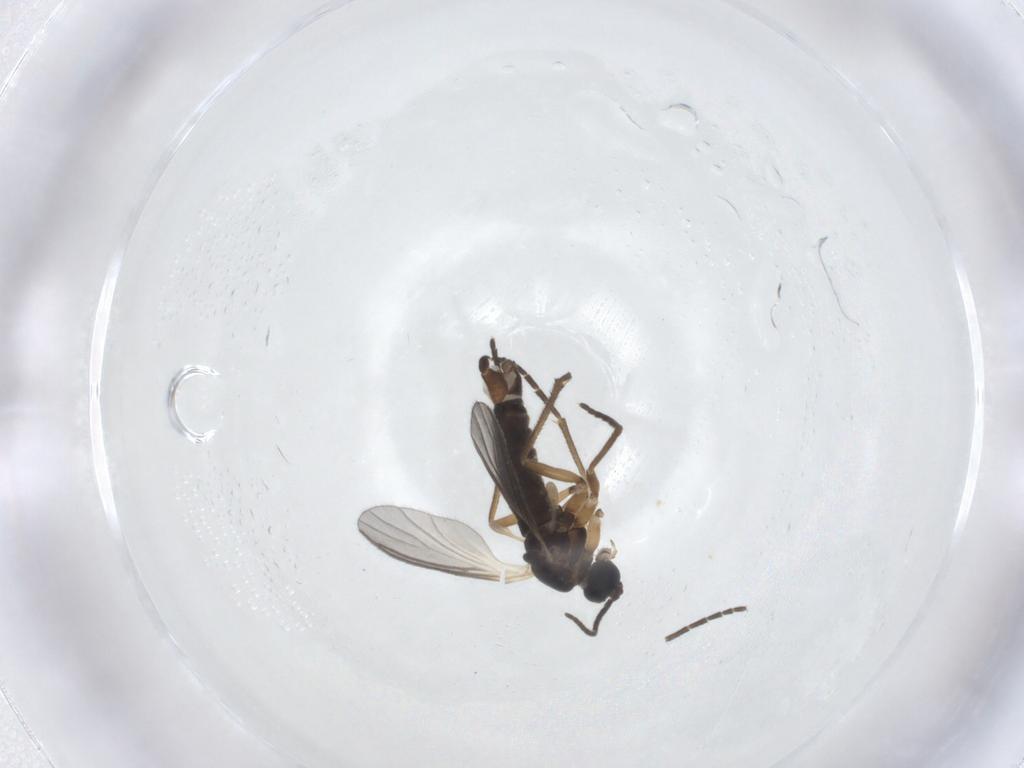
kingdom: Animalia
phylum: Arthropoda
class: Insecta
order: Diptera
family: Sciaridae
